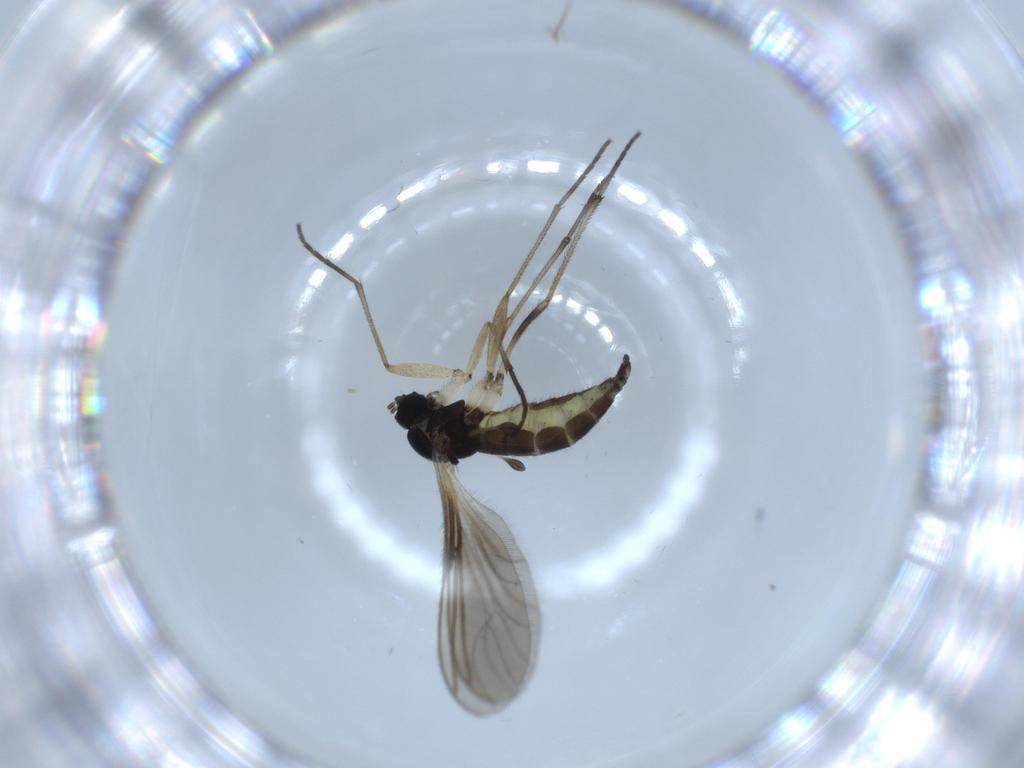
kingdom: Animalia
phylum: Arthropoda
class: Insecta
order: Diptera
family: Sciaridae
